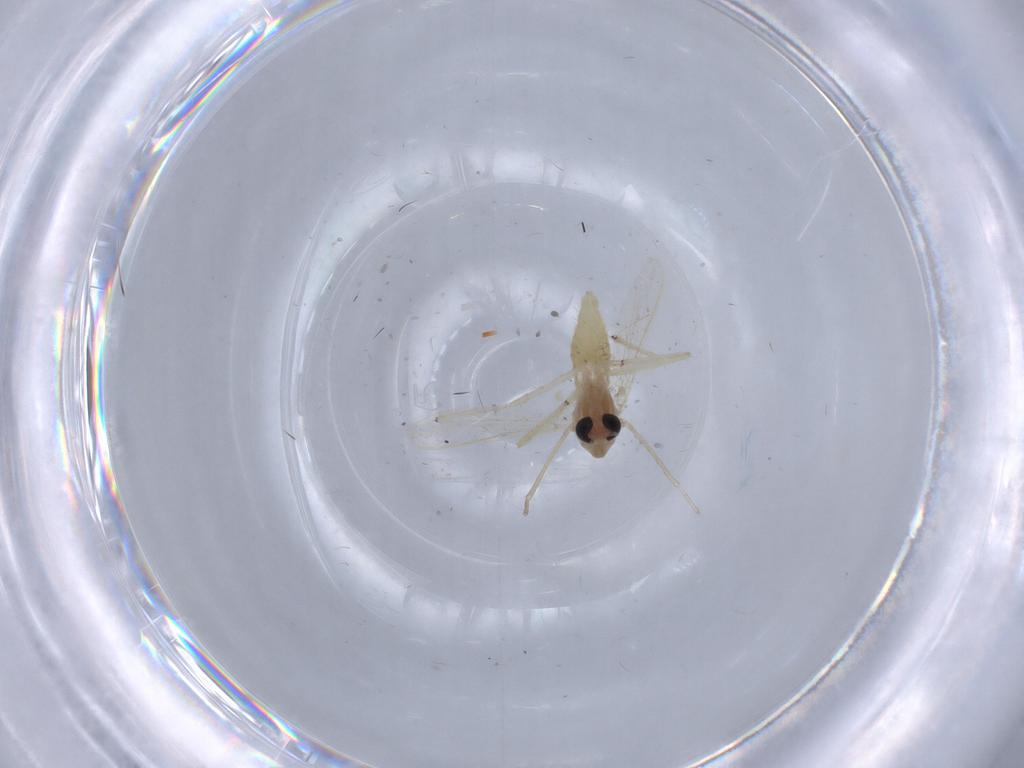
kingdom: Animalia
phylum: Arthropoda
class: Insecta
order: Diptera
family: Chironomidae
